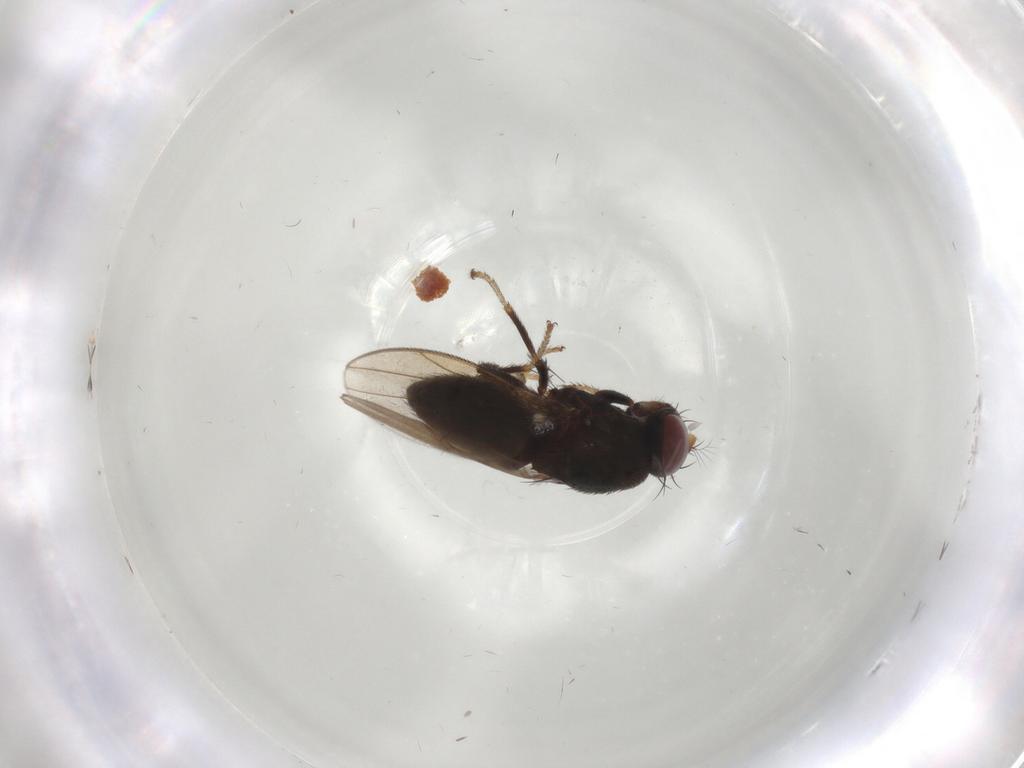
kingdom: Animalia
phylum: Arthropoda
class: Insecta
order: Diptera
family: Ephydridae
